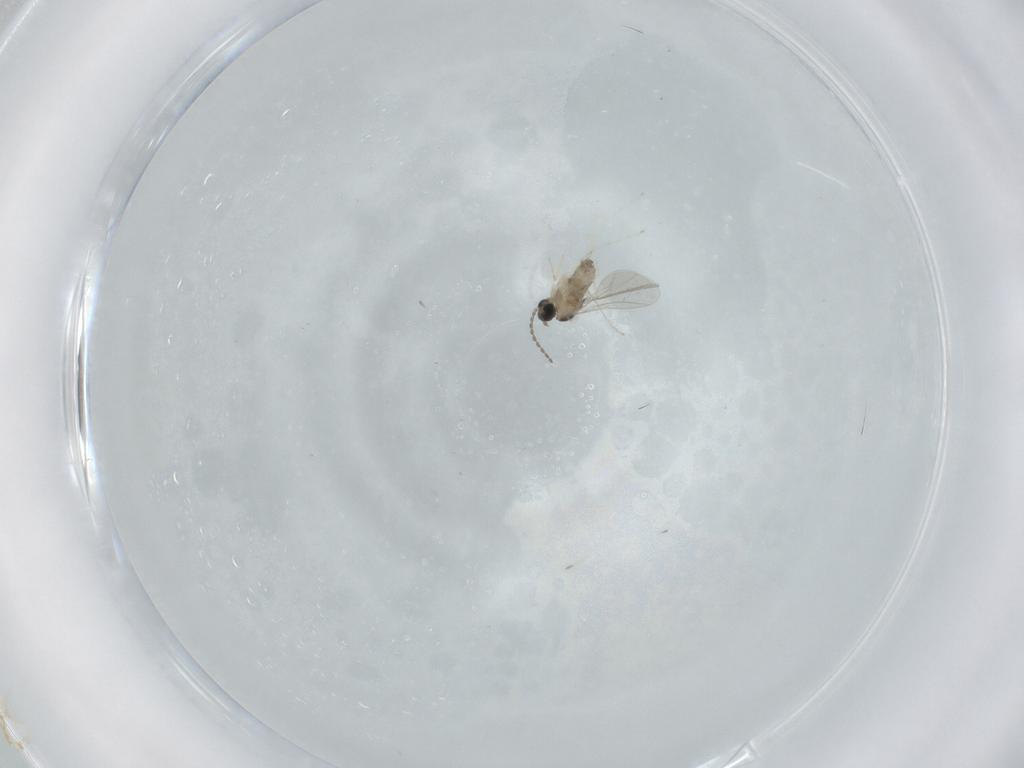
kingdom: Animalia
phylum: Arthropoda
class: Insecta
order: Diptera
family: Cecidomyiidae
